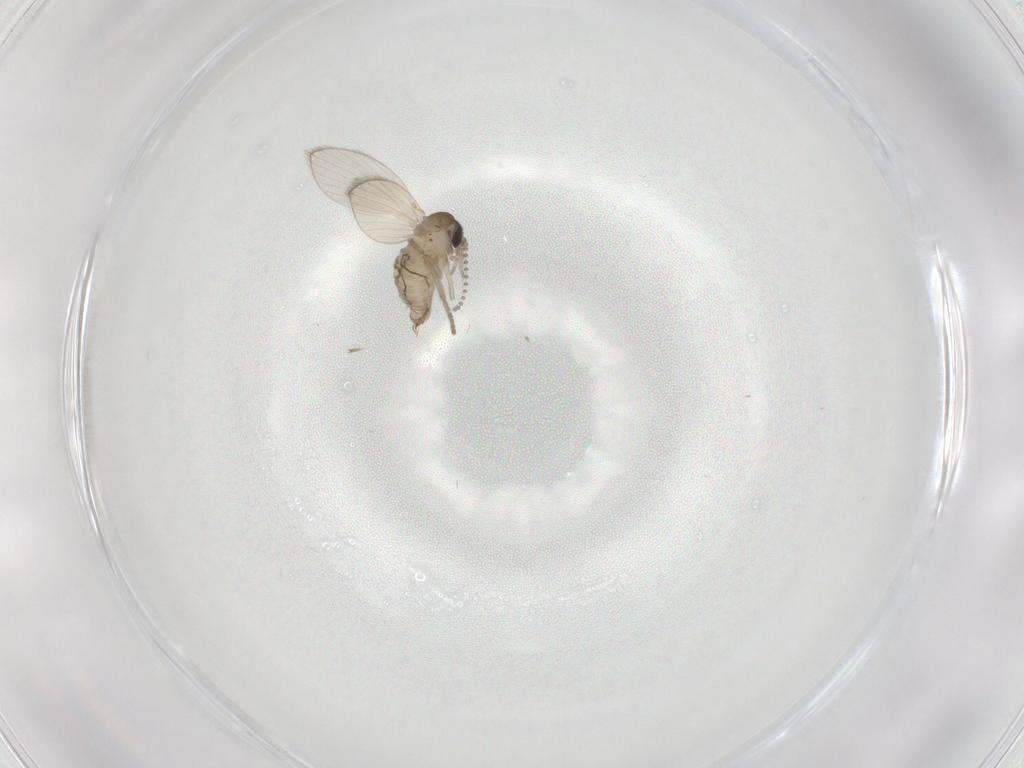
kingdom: Animalia
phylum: Arthropoda
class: Insecta
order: Diptera
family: Psychodidae
